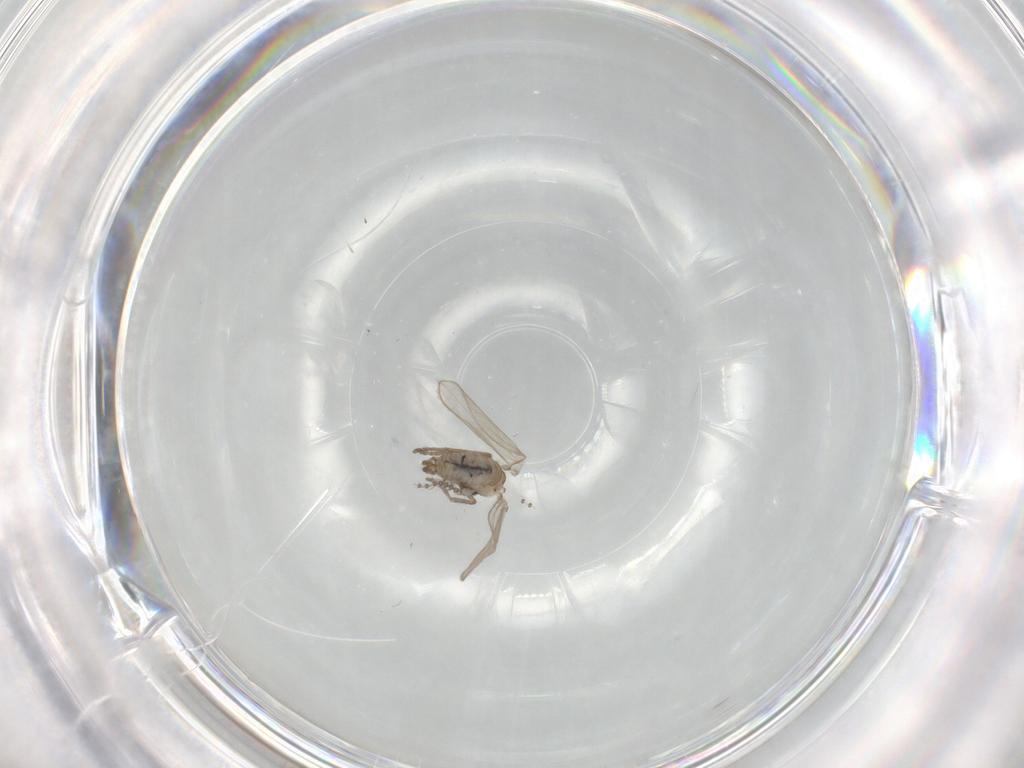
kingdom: Animalia
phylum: Arthropoda
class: Insecta
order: Diptera
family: Psychodidae
